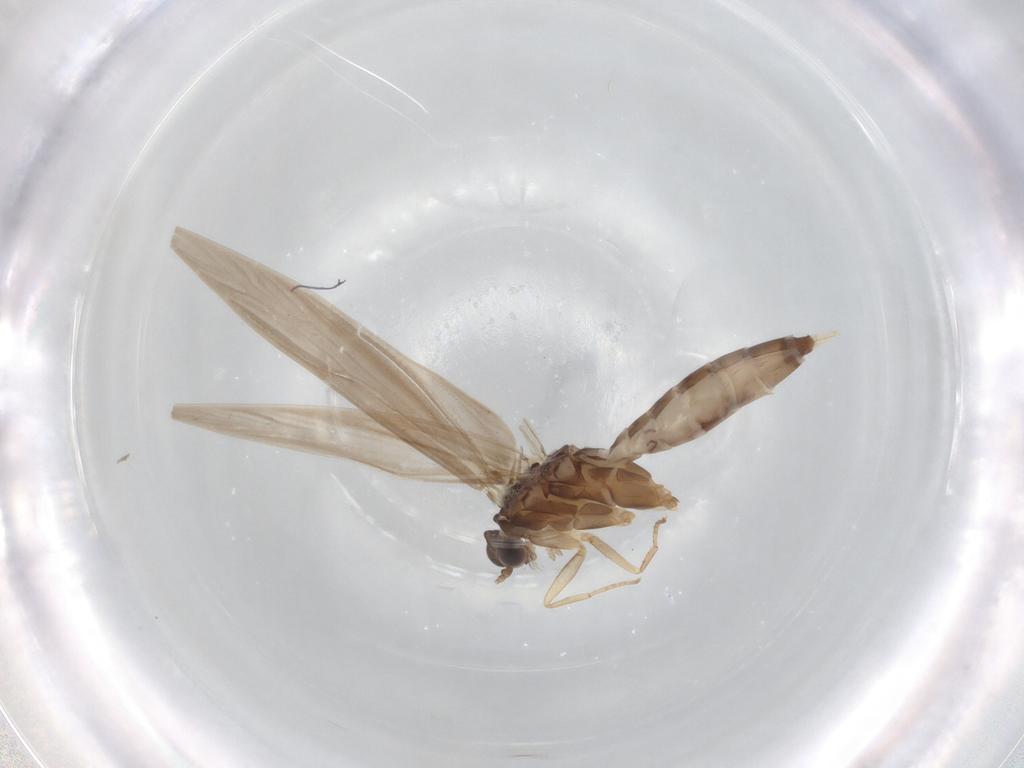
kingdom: Animalia
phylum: Arthropoda
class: Insecta
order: Trichoptera
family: Hydroptilidae
